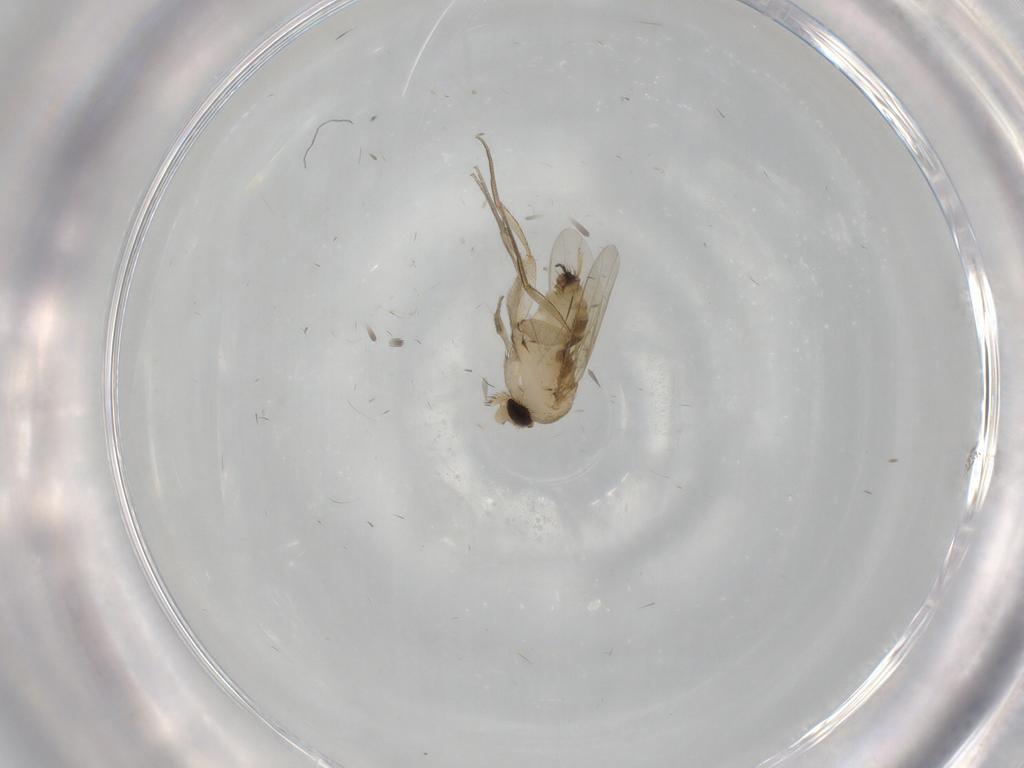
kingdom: Animalia
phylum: Arthropoda
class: Insecta
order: Diptera
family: Phoridae
